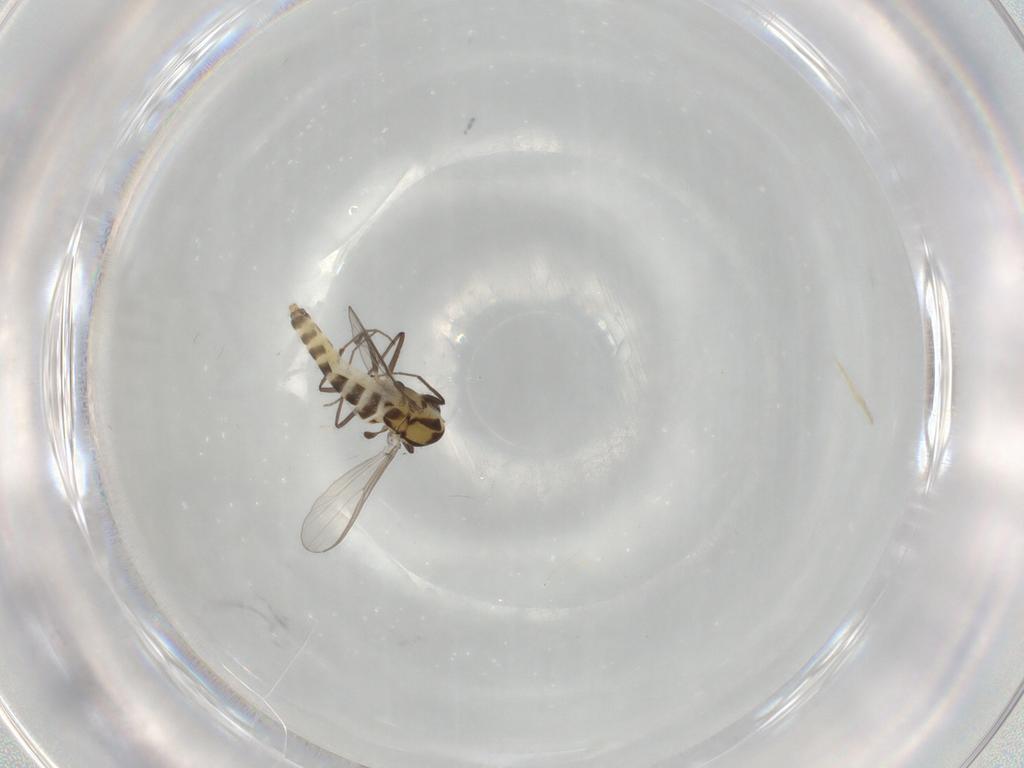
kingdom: Animalia
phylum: Arthropoda
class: Insecta
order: Diptera
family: Chironomidae
